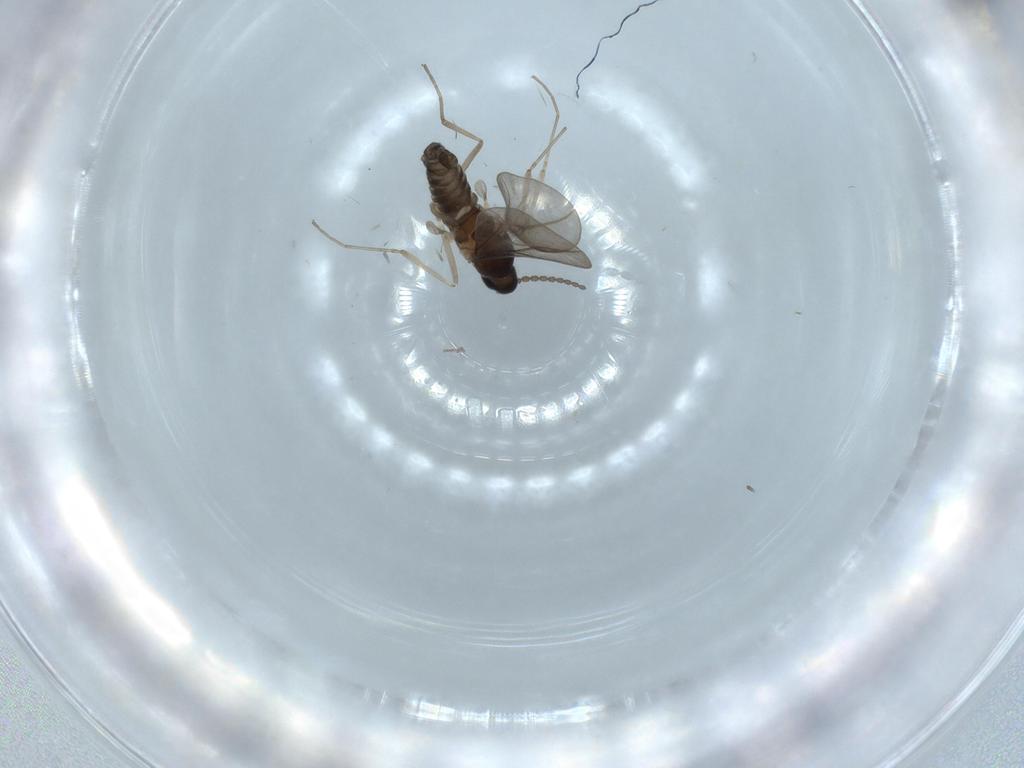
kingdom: Animalia
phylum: Arthropoda
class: Insecta
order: Diptera
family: Cecidomyiidae
